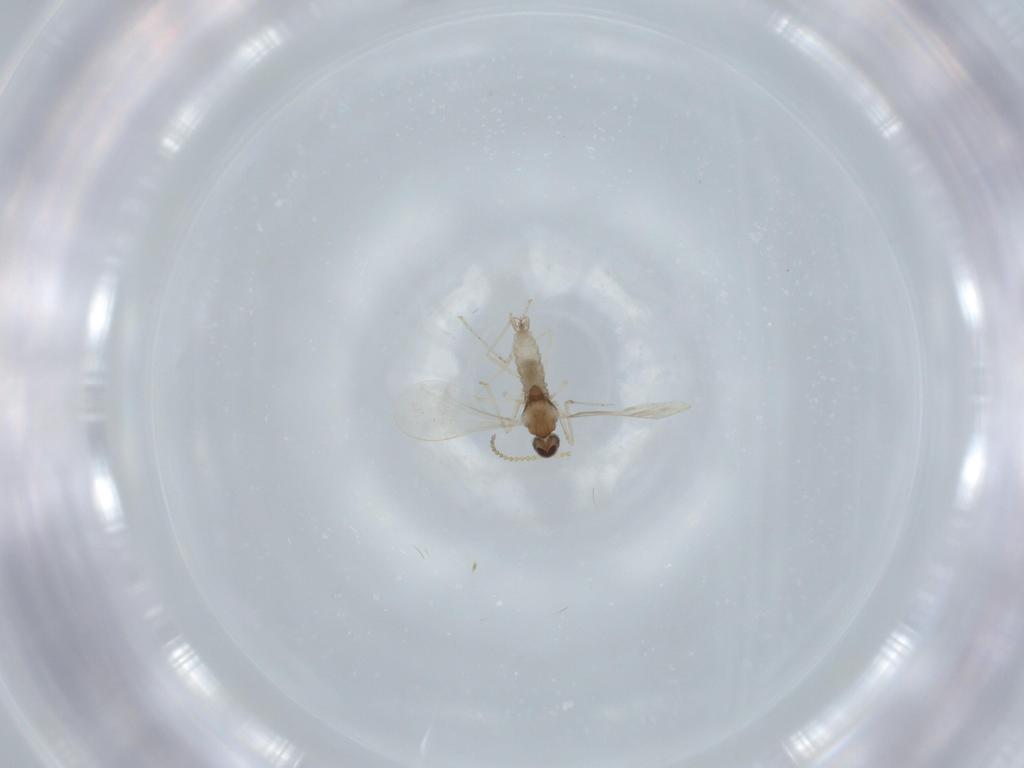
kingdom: Animalia
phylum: Arthropoda
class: Insecta
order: Diptera
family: Cecidomyiidae
